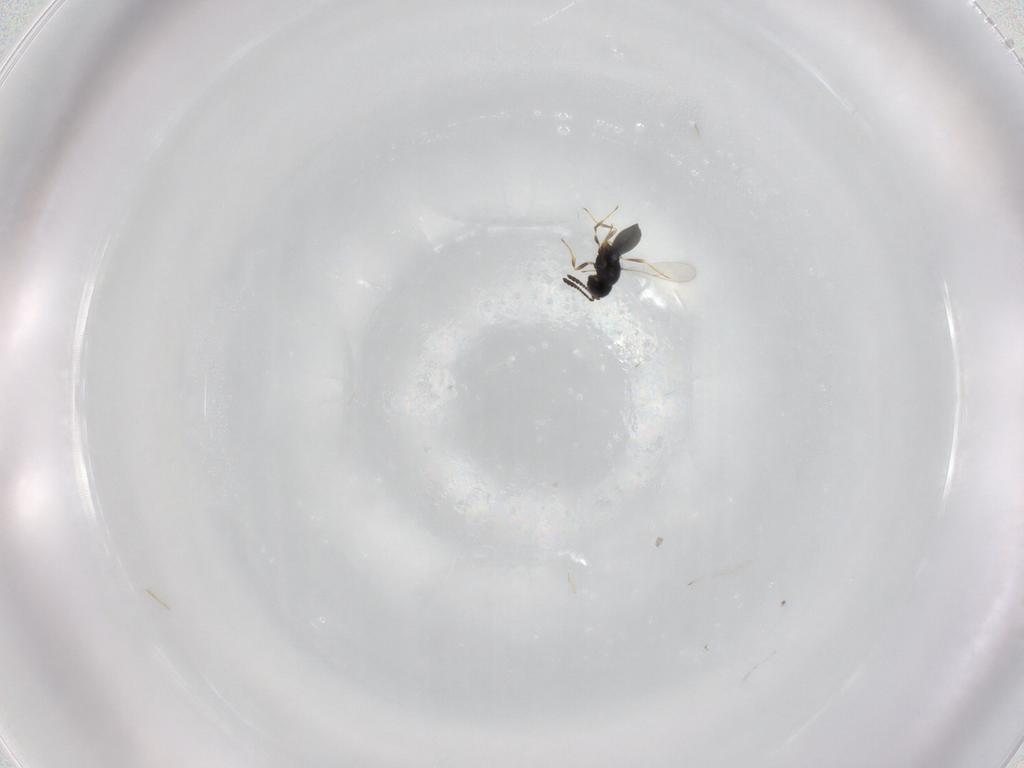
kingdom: Animalia
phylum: Arthropoda
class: Insecta
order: Hymenoptera
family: Scelionidae
